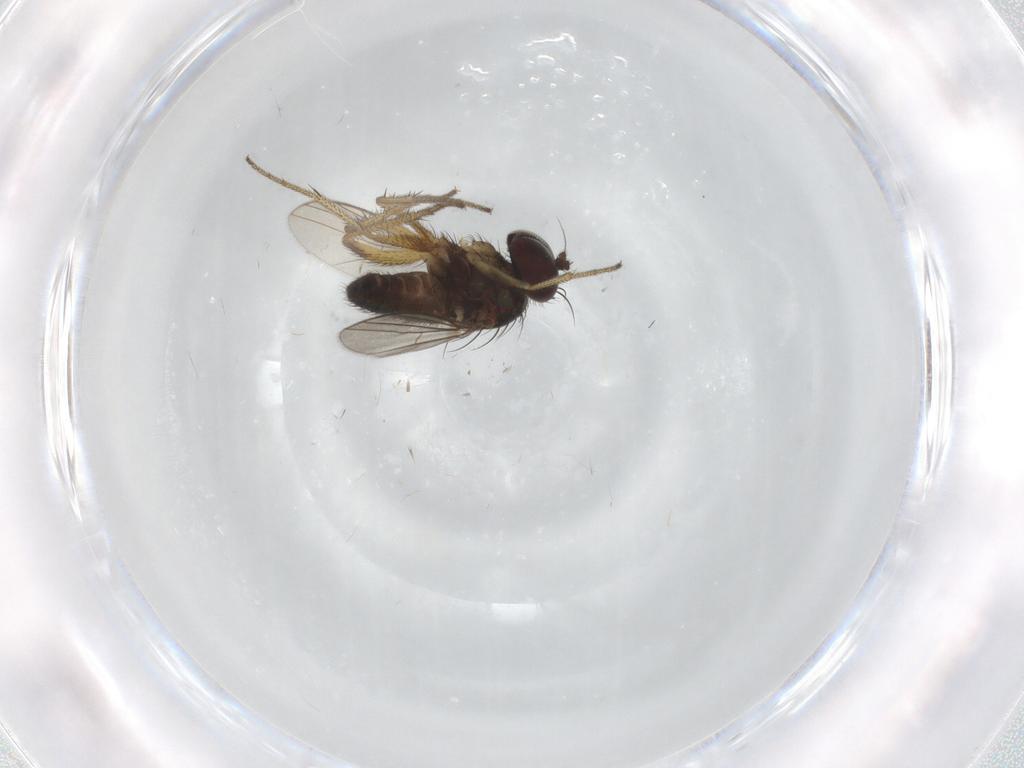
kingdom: Animalia
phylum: Arthropoda
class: Insecta
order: Diptera
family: Dolichopodidae
